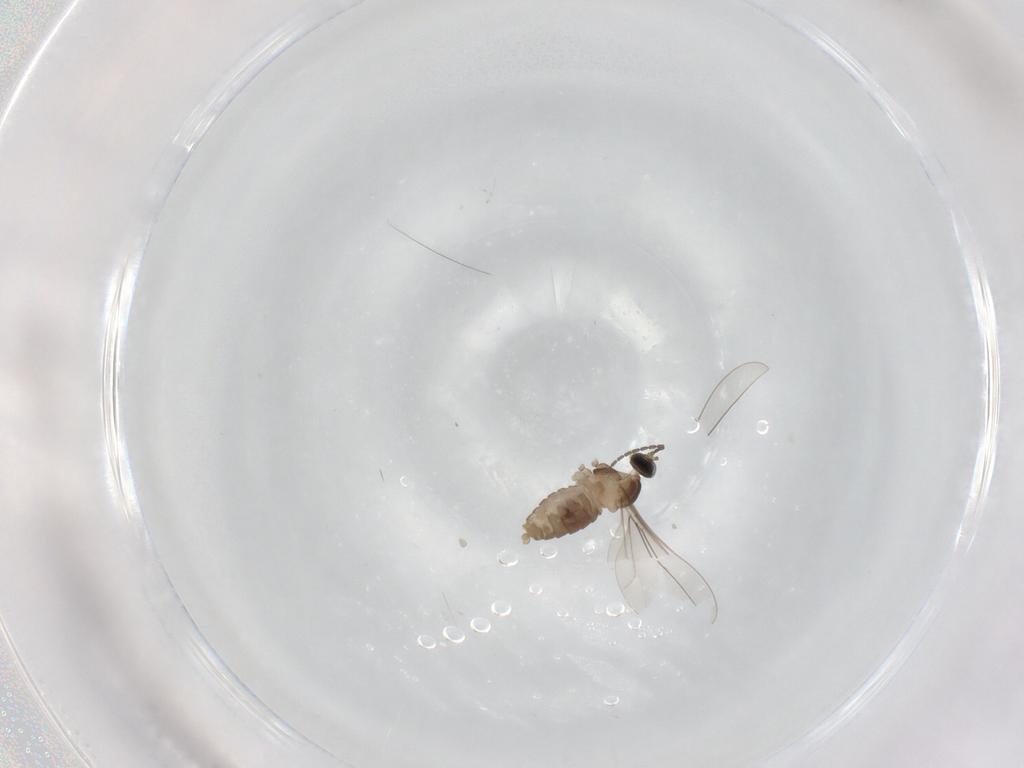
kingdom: Animalia
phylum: Arthropoda
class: Insecta
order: Diptera
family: Cecidomyiidae
